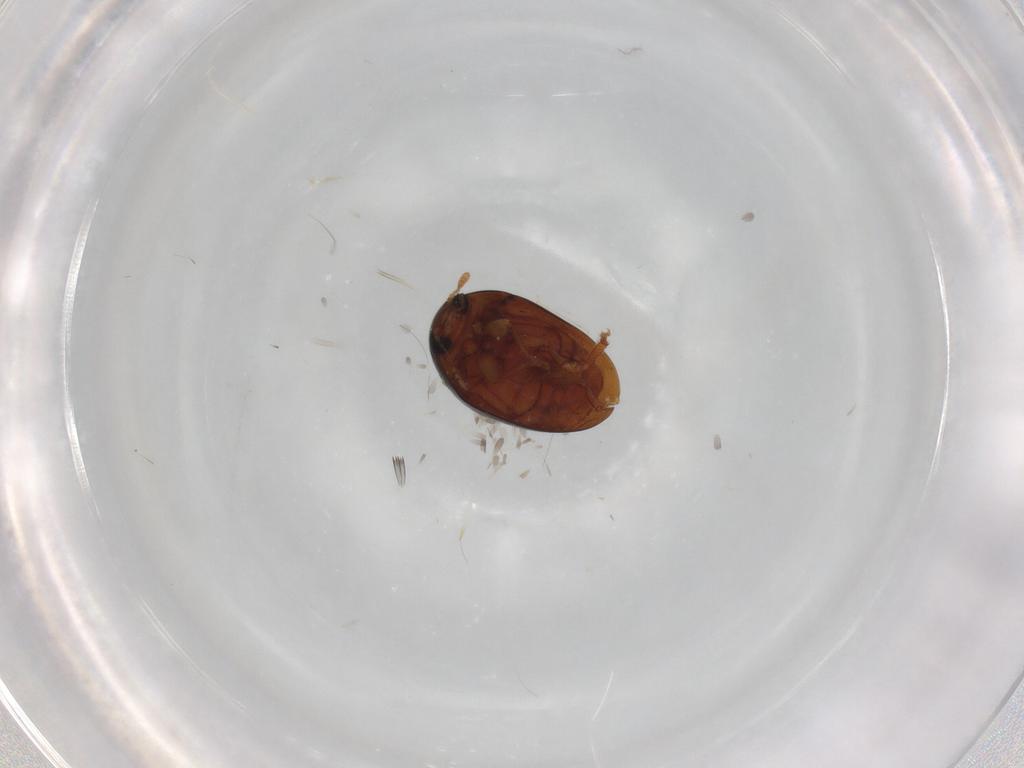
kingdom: Animalia
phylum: Arthropoda
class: Insecta
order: Coleoptera
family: Phalacridae
